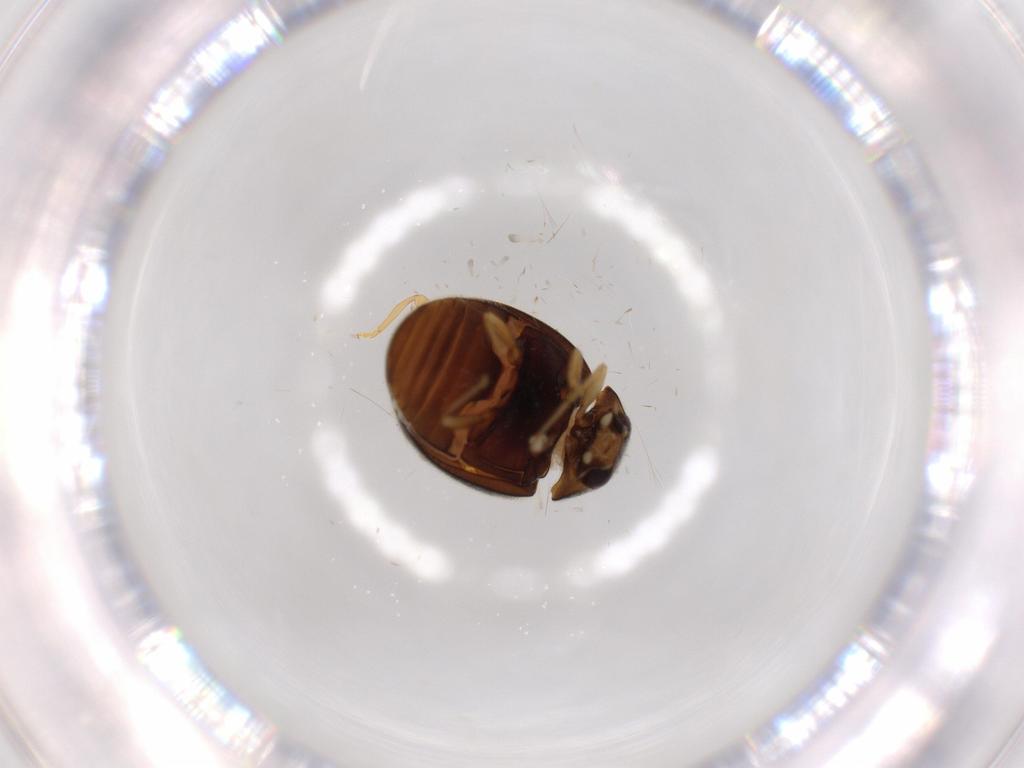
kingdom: Animalia
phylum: Arthropoda
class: Insecta
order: Coleoptera
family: Coccinellidae
